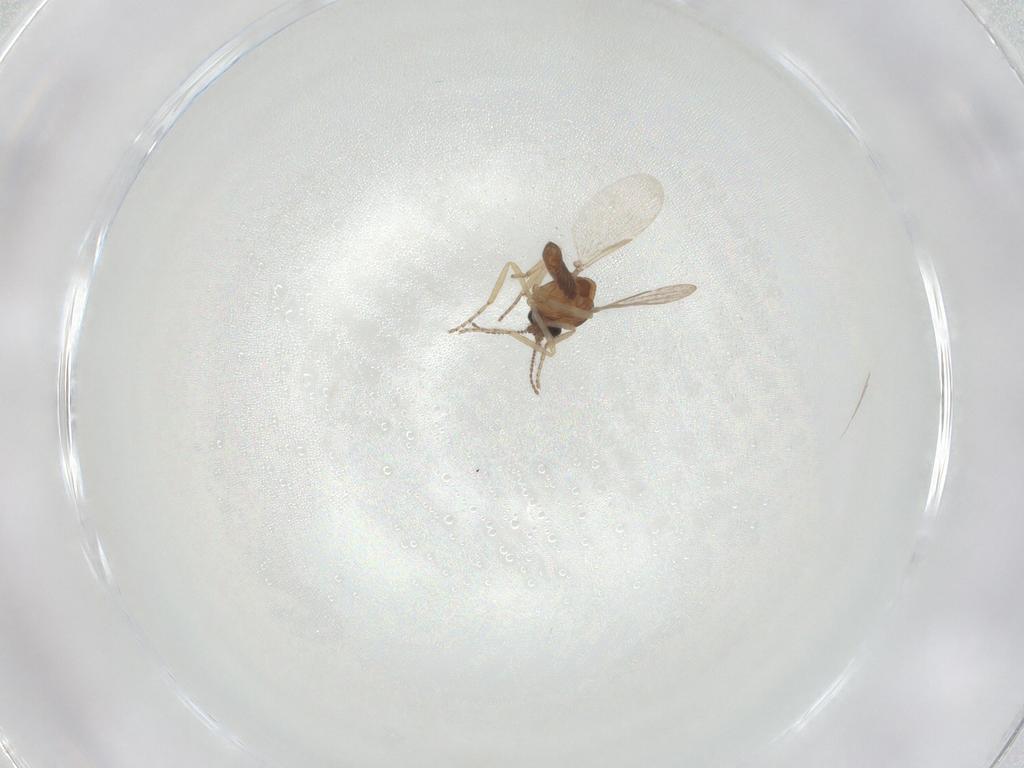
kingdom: Animalia
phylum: Arthropoda
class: Insecta
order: Diptera
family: Ceratopogonidae
